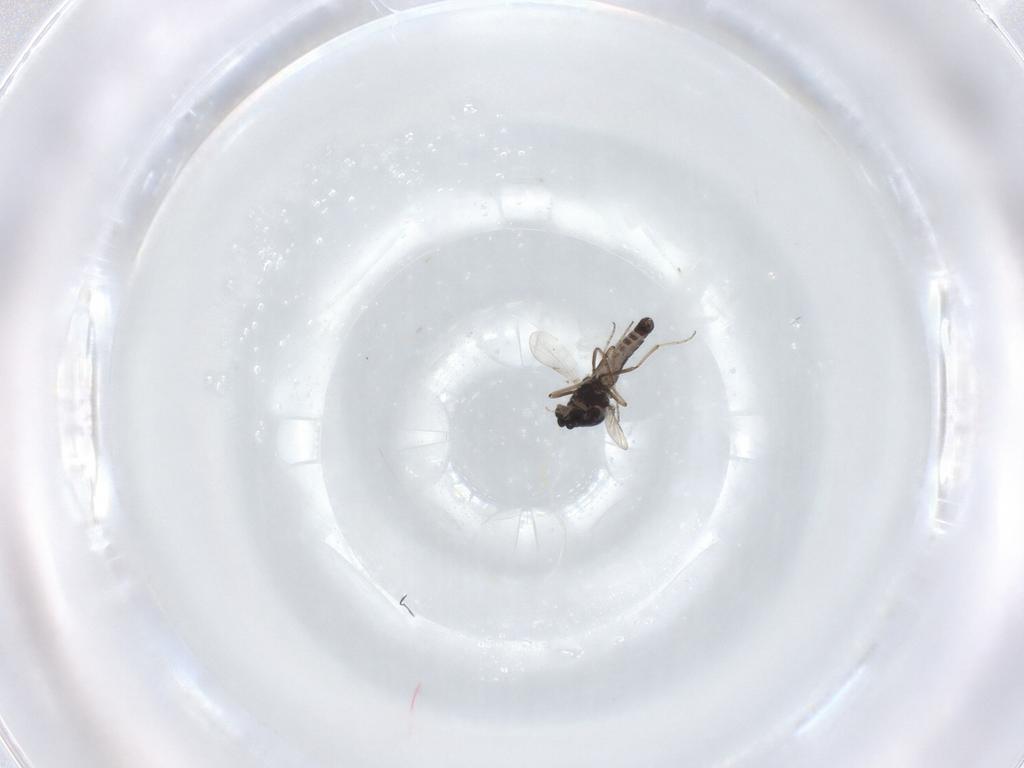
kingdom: Animalia
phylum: Arthropoda
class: Insecta
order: Diptera
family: Ceratopogonidae
